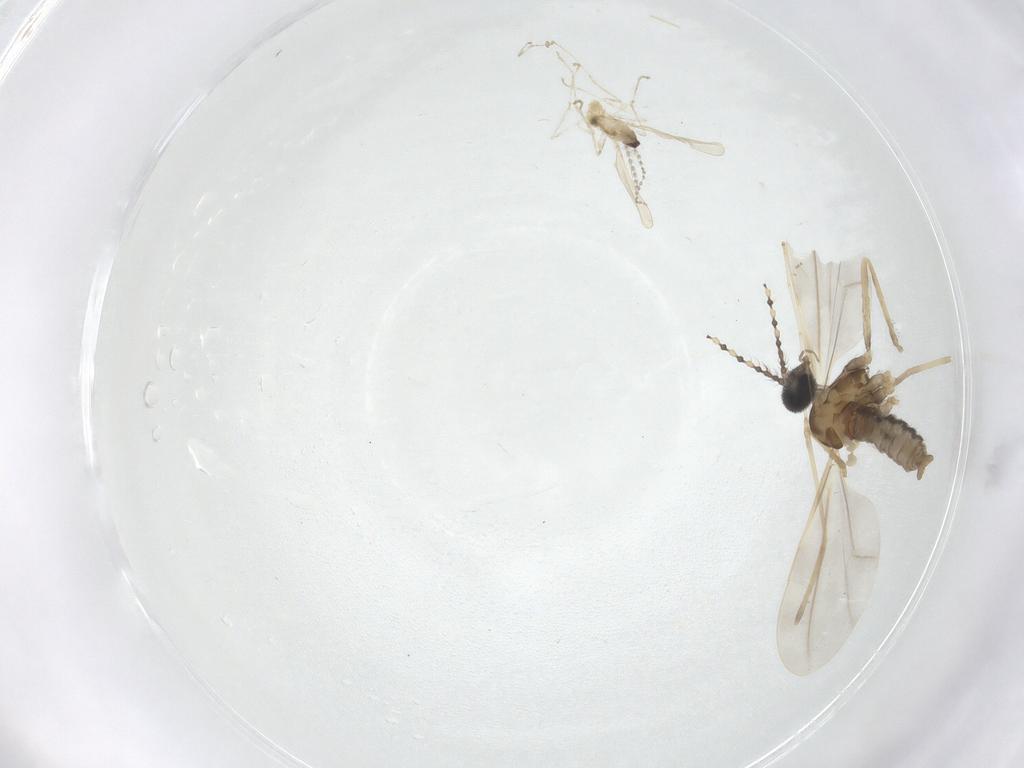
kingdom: Animalia
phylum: Arthropoda
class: Insecta
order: Diptera
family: Cecidomyiidae
